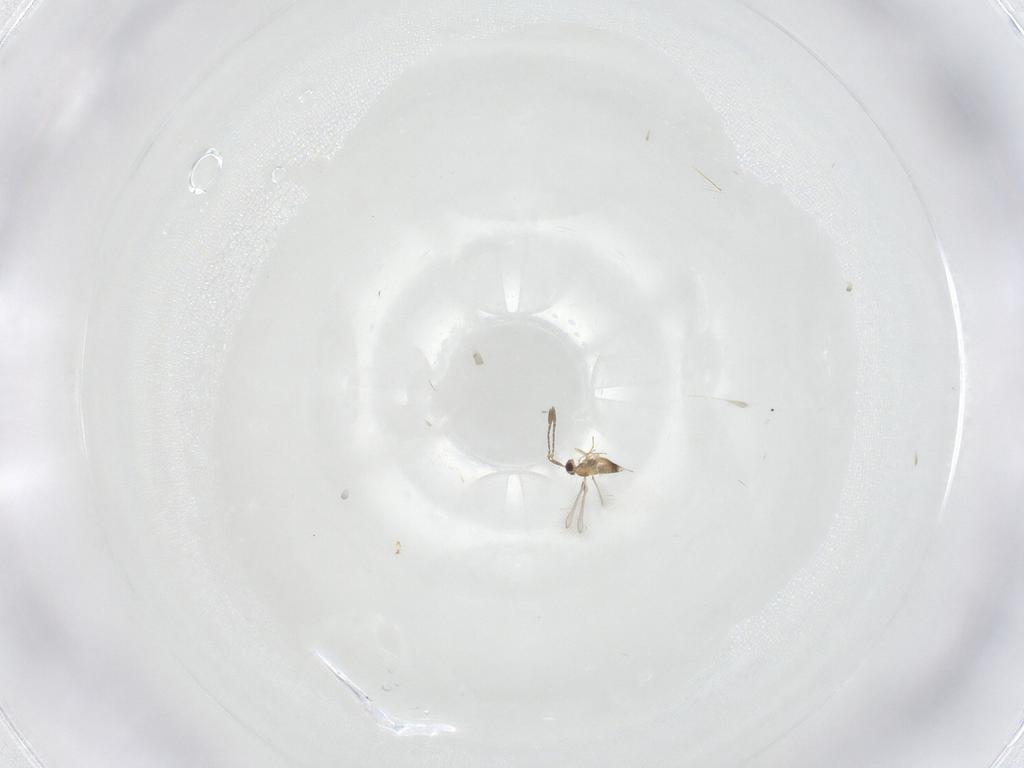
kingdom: Animalia
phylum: Arthropoda
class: Insecta
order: Hymenoptera
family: Mymaridae
